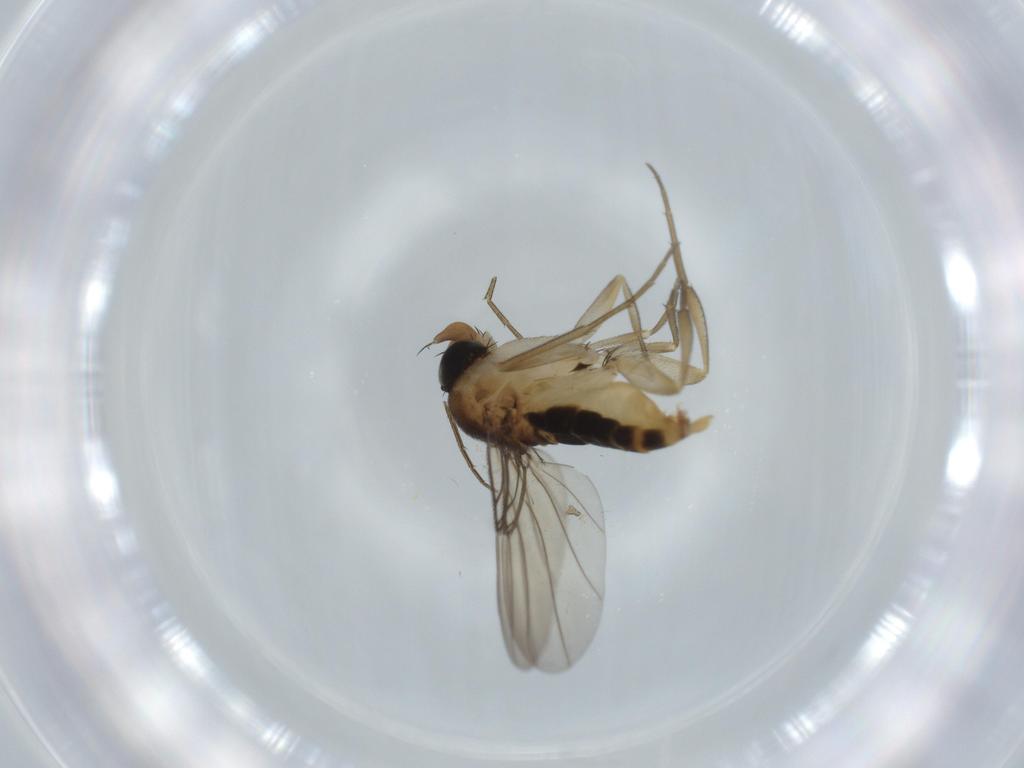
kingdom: Animalia
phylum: Arthropoda
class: Insecta
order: Diptera
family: Phoridae
